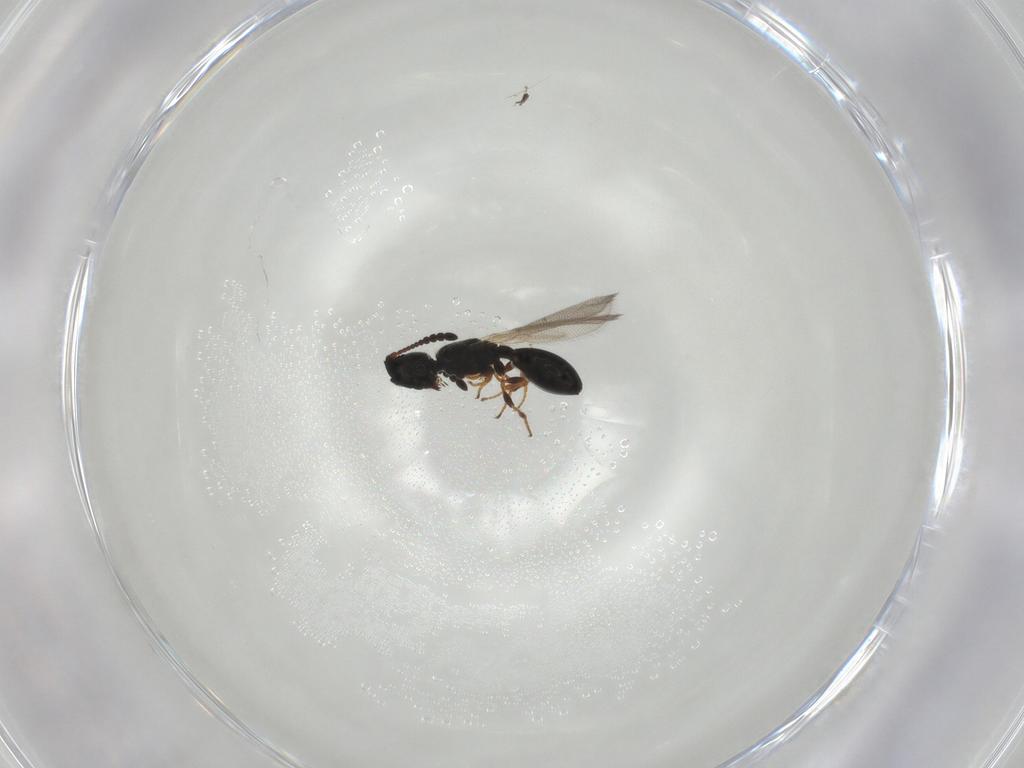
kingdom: Animalia
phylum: Arthropoda
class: Insecta
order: Hymenoptera
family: Diapriidae
